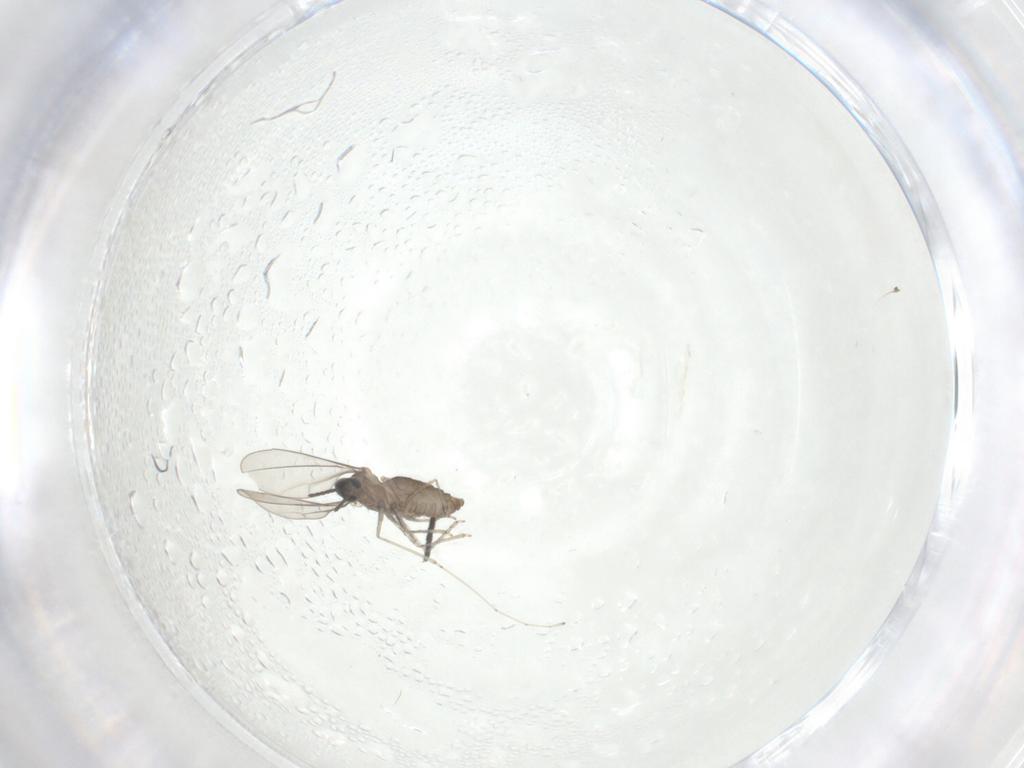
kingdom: Animalia
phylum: Arthropoda
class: Insecta
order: Diptera
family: Cecidomyiidae
